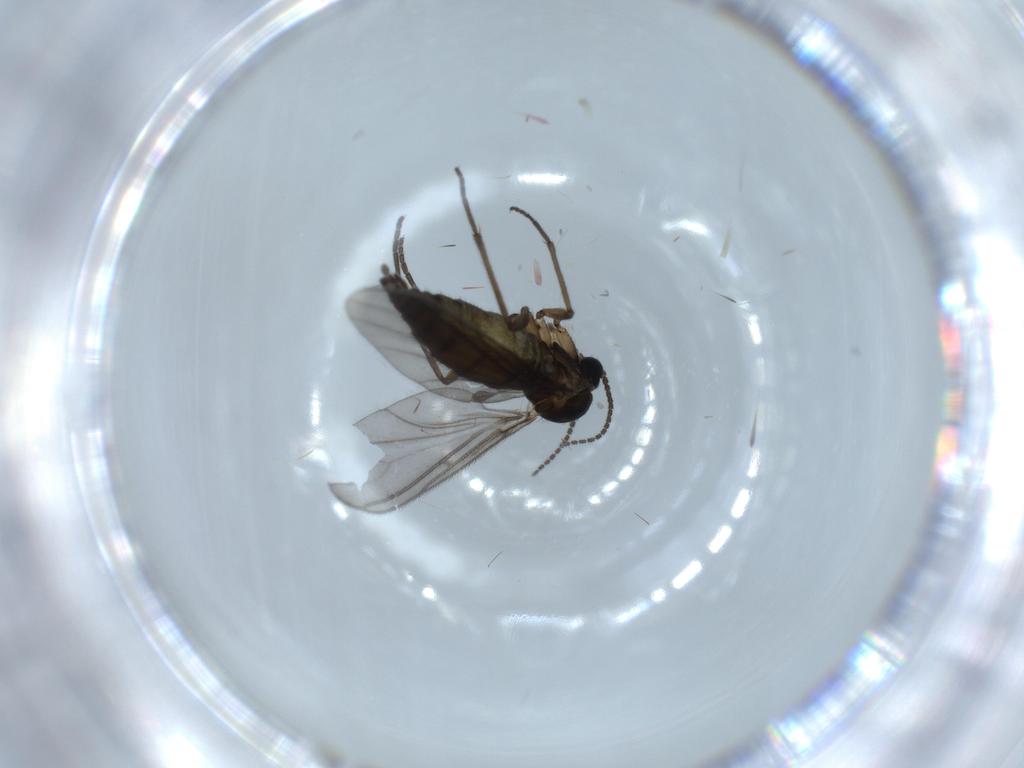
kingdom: Animalia
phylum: Arthropoda
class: Insecta
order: Diptera
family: Sciaridae
